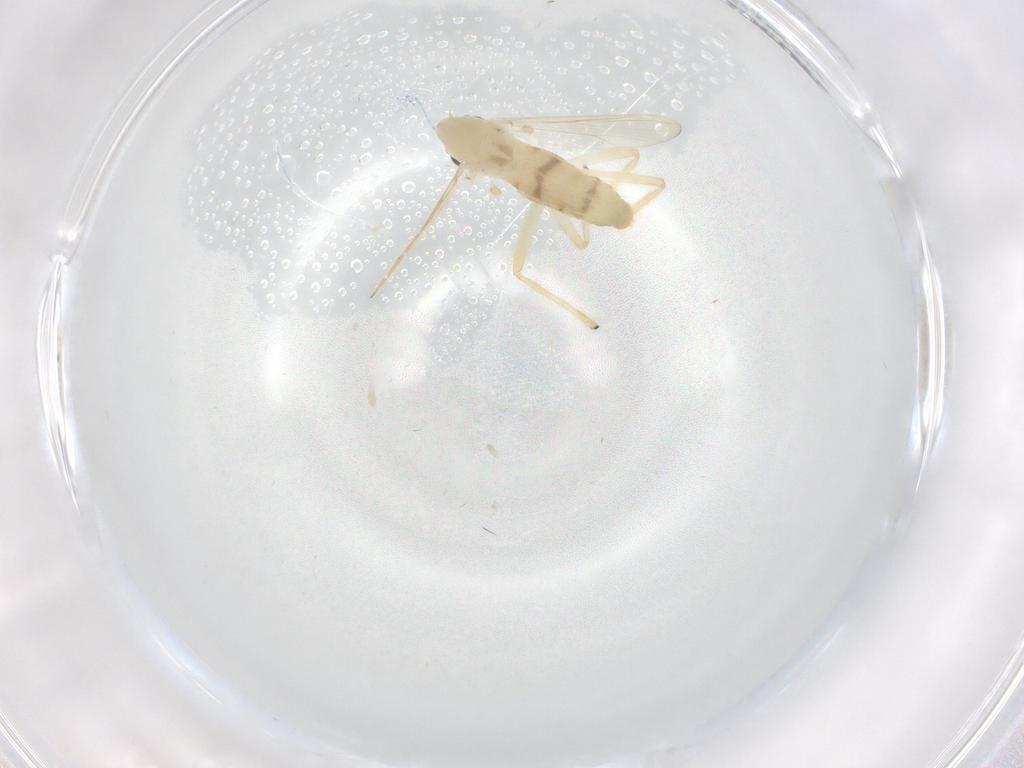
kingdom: Animalia
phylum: Arthropoda
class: Insecta
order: Diptera
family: Chironomidae
